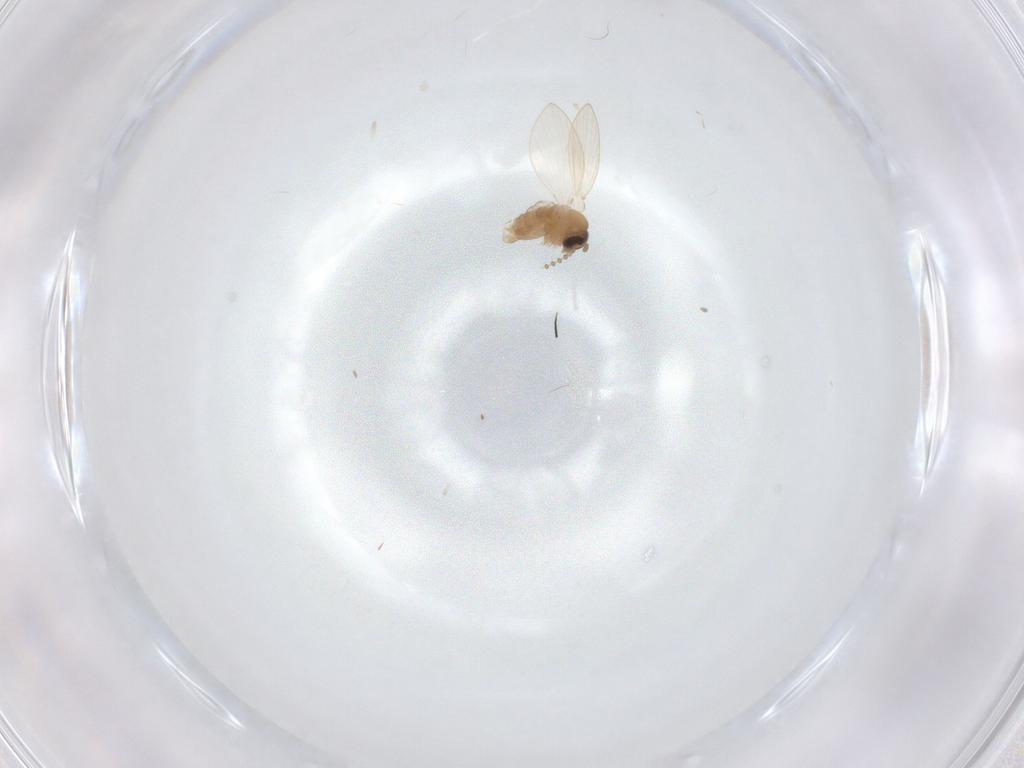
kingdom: Animalia
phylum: Arthropoda
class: Insecta
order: Diptera
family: Psychodidae
